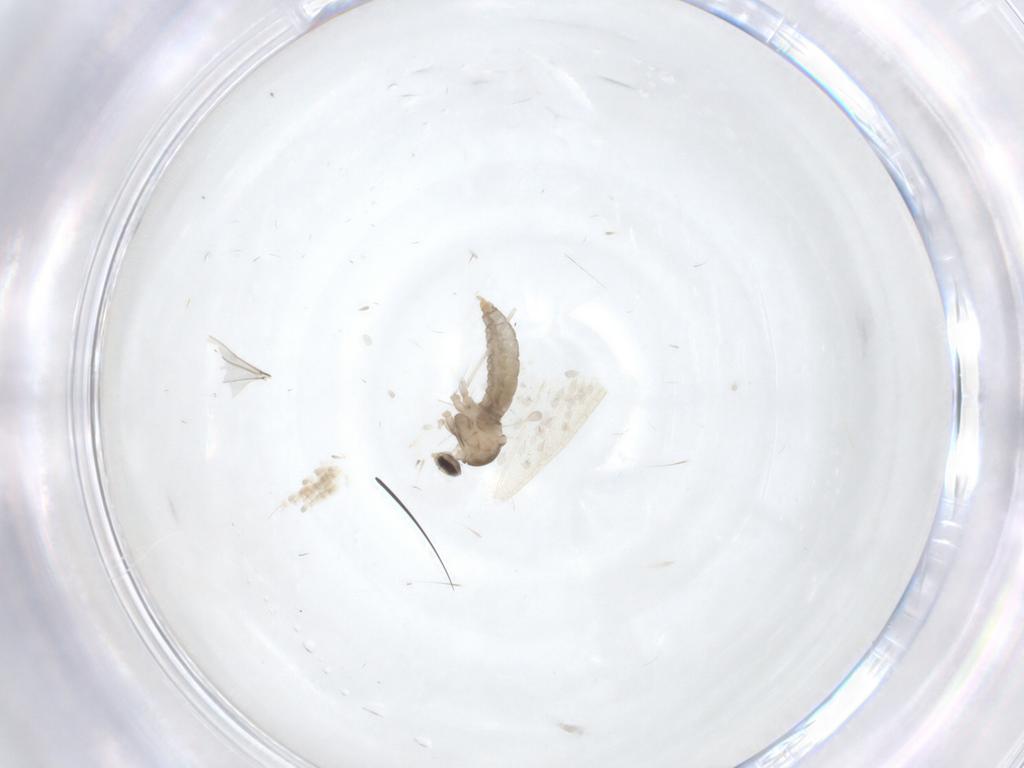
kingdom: Animalia
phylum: Arthropoda
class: Insecta
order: Diptera
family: Cecidomyiidae
